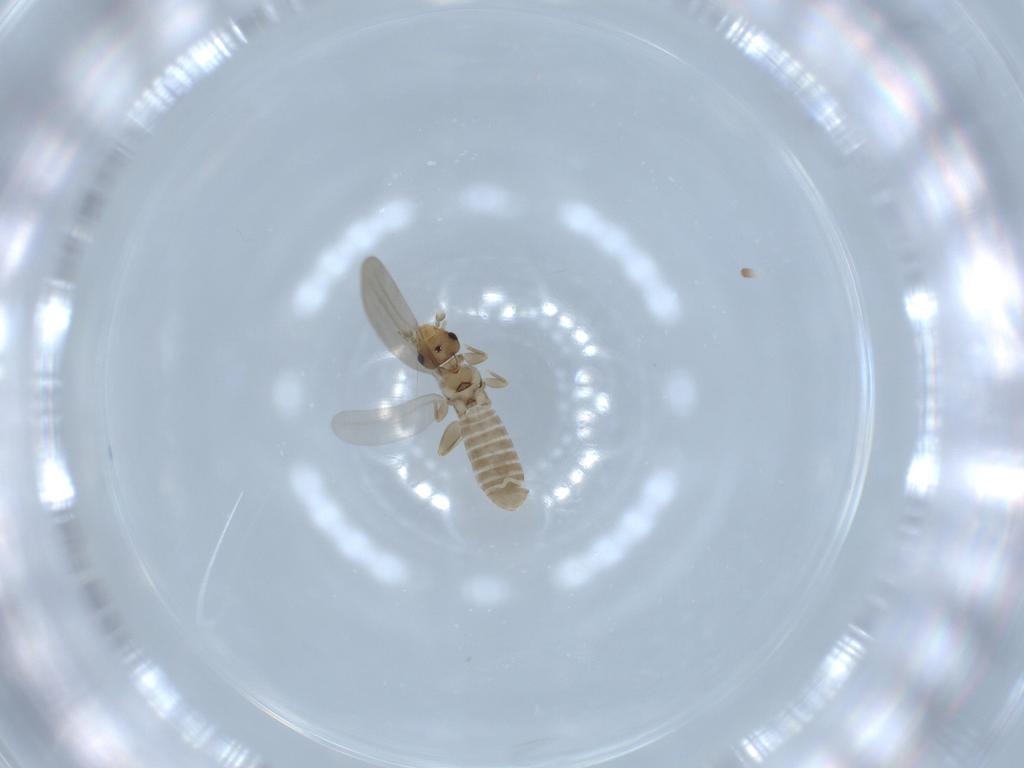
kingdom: Animalia
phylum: Arthropoda
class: Insecta
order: Psocodea
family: Liposcelididae
